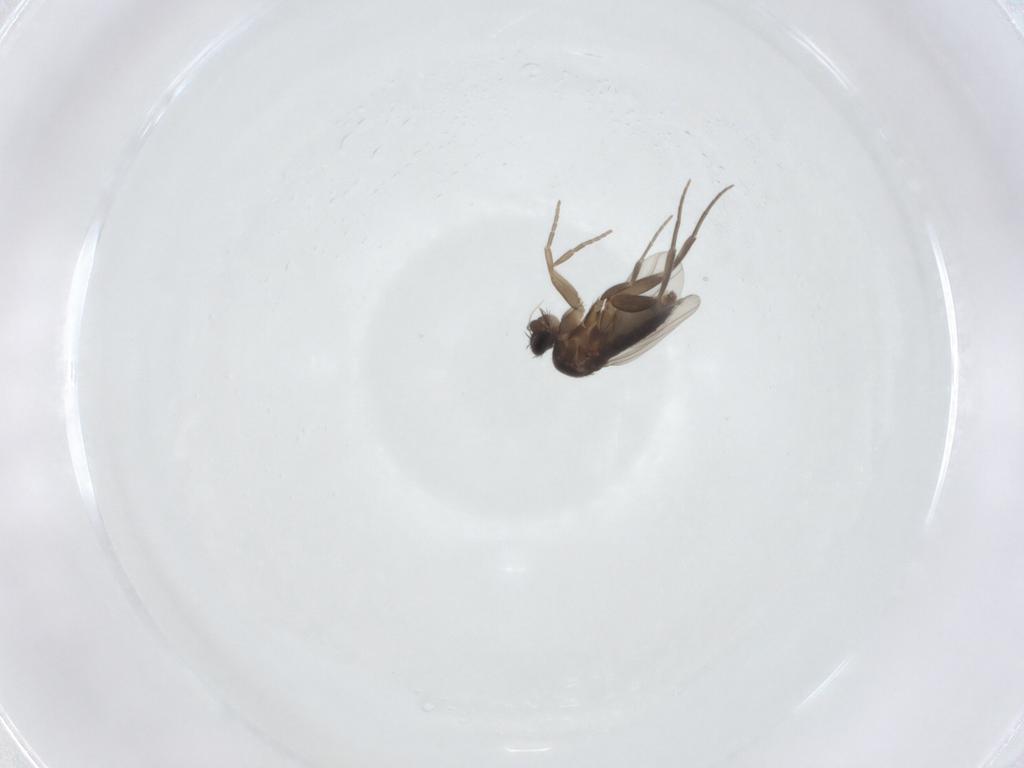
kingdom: Animalia
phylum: Arthropoda
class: Insecta
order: Diptera
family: Phoridae
